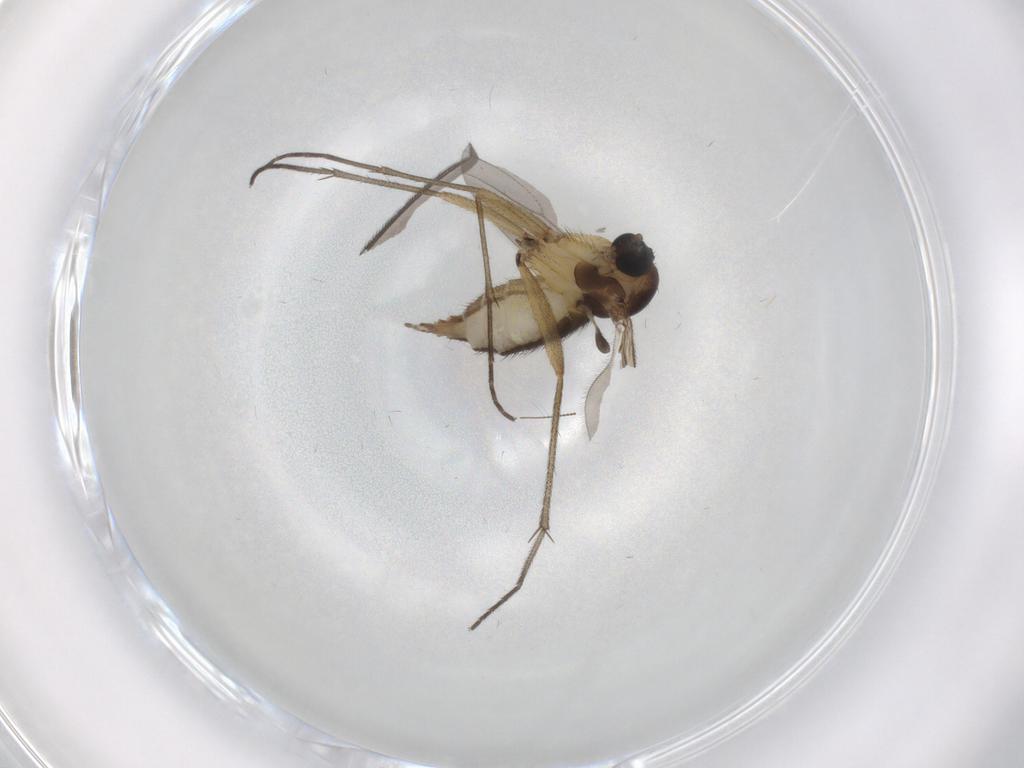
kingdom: Animalia
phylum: Arthropoda
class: Insecta
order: Diptera
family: Sciaridae
